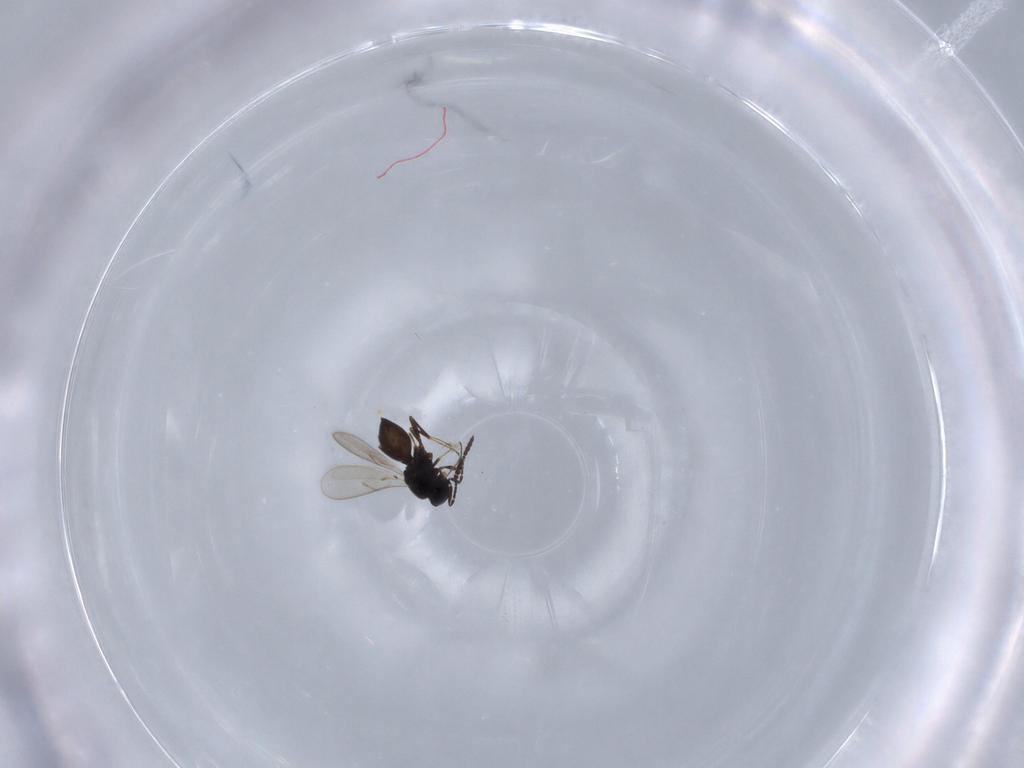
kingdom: Animalia
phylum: Arthropoda
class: Insecta
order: Hymenoptera
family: Scelionidae
